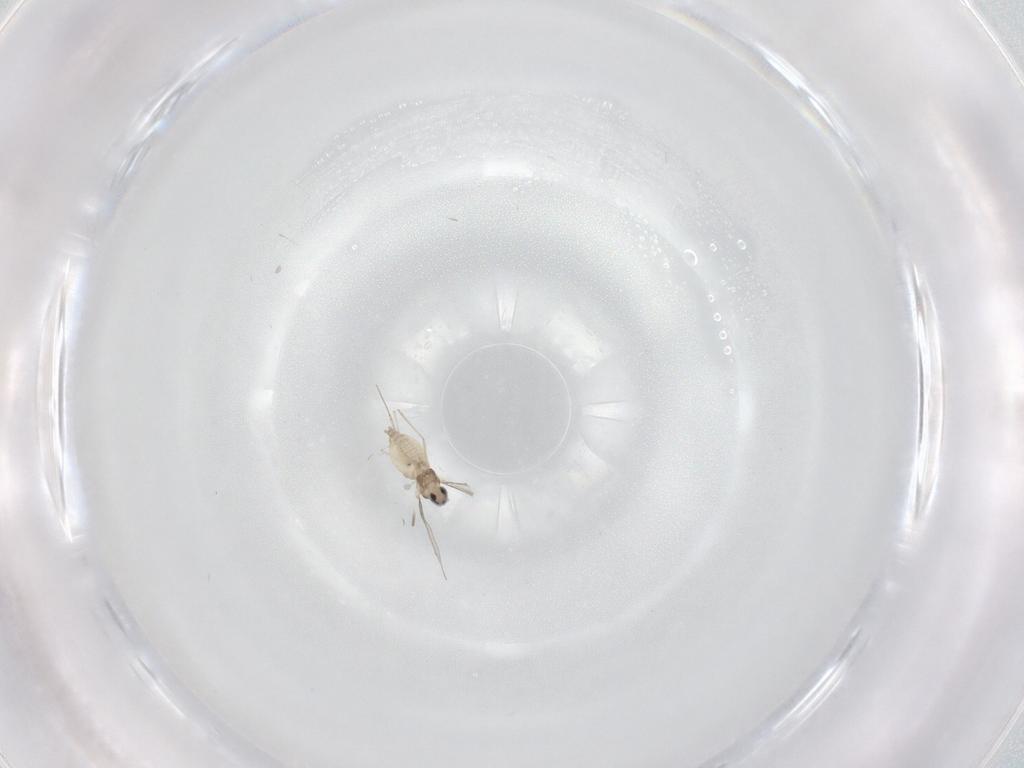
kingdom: Animalia
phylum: Arthropoda
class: Insecta
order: Diptera
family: Cecidomyiidae
